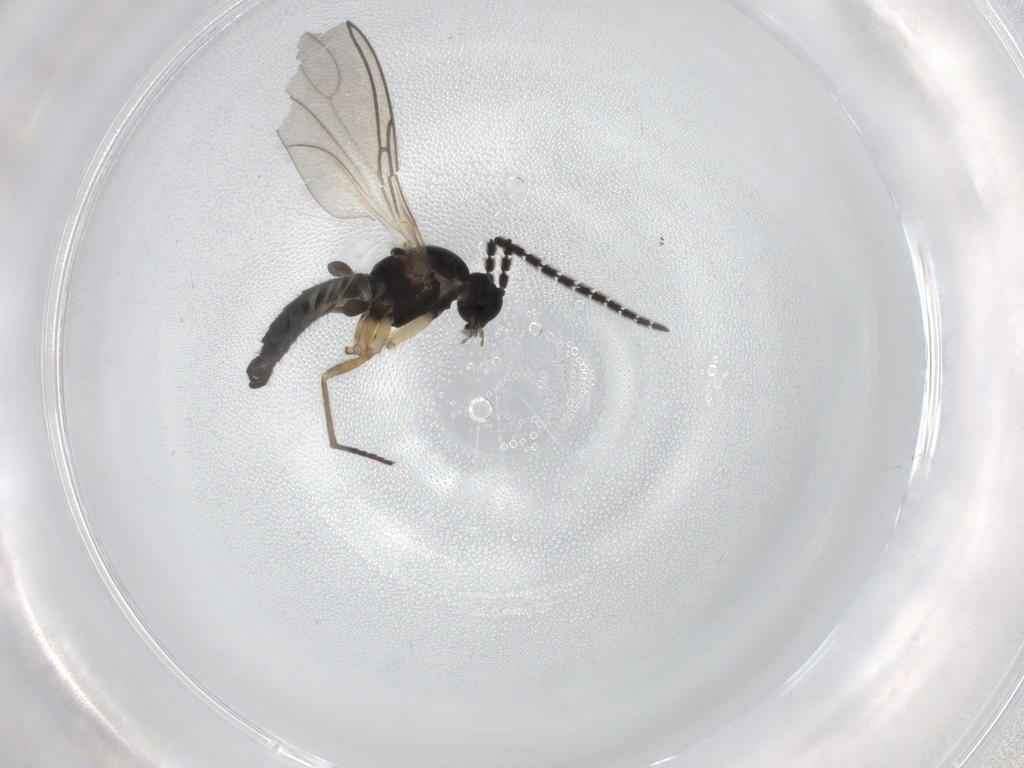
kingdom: Animalia
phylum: Arthropoda
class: Insecta
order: Diptera
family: Sciaridae
